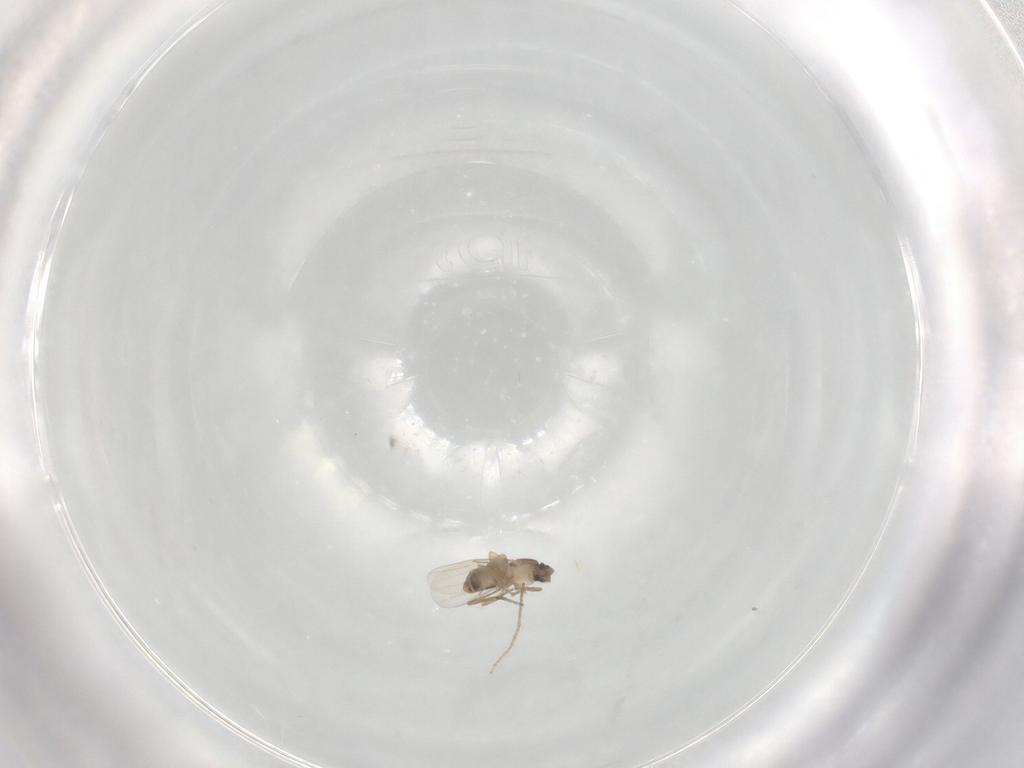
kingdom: Animalia
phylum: Arthropoda
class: Insecta
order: Diptera
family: Phoridae
